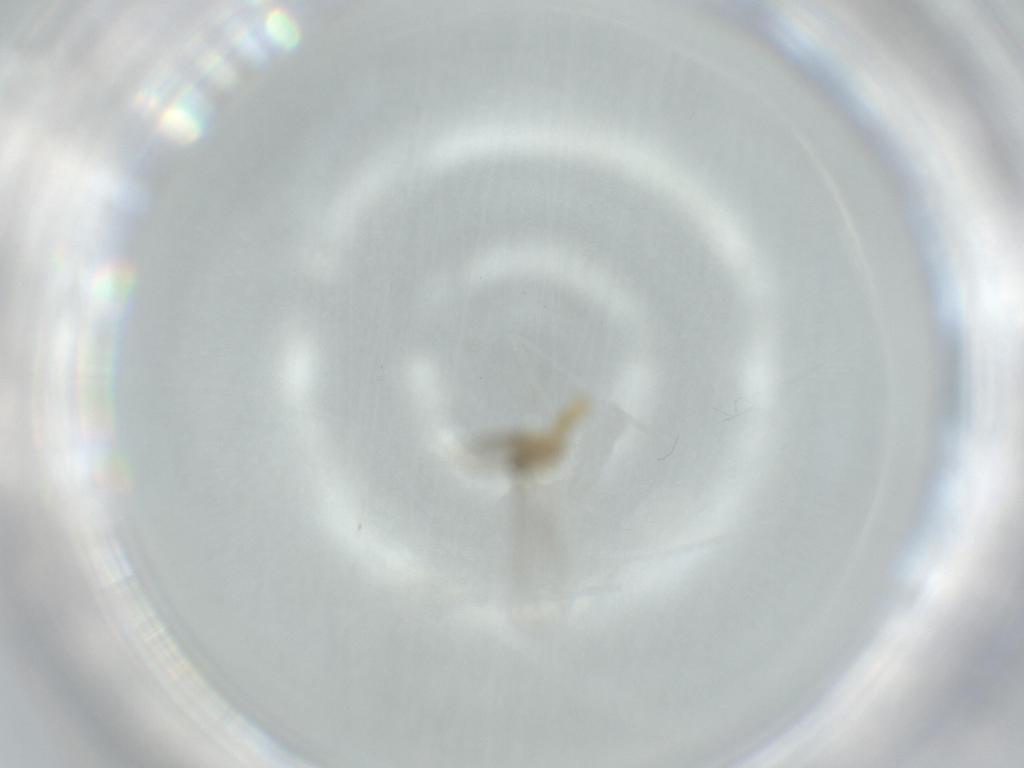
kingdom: Animalia
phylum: Arthropoda
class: Insecta
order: Diptera
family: Cecidomyiidae
